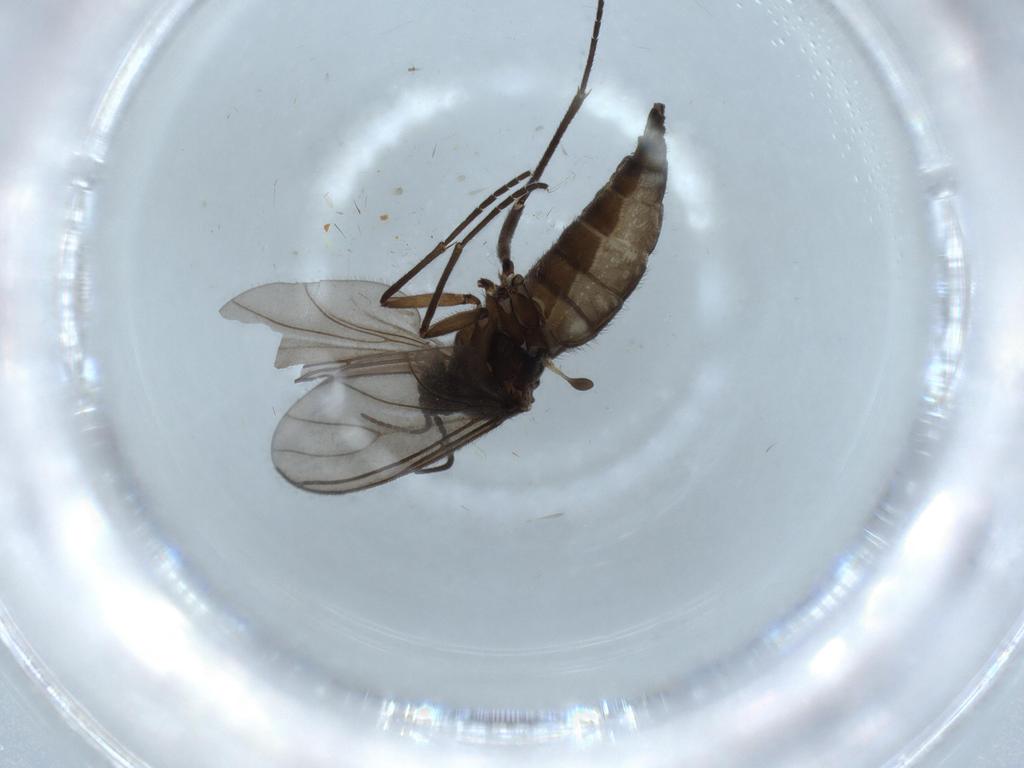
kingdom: Animalia
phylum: Arthropoda
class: Insecta
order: Diptera
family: Sciaridae
